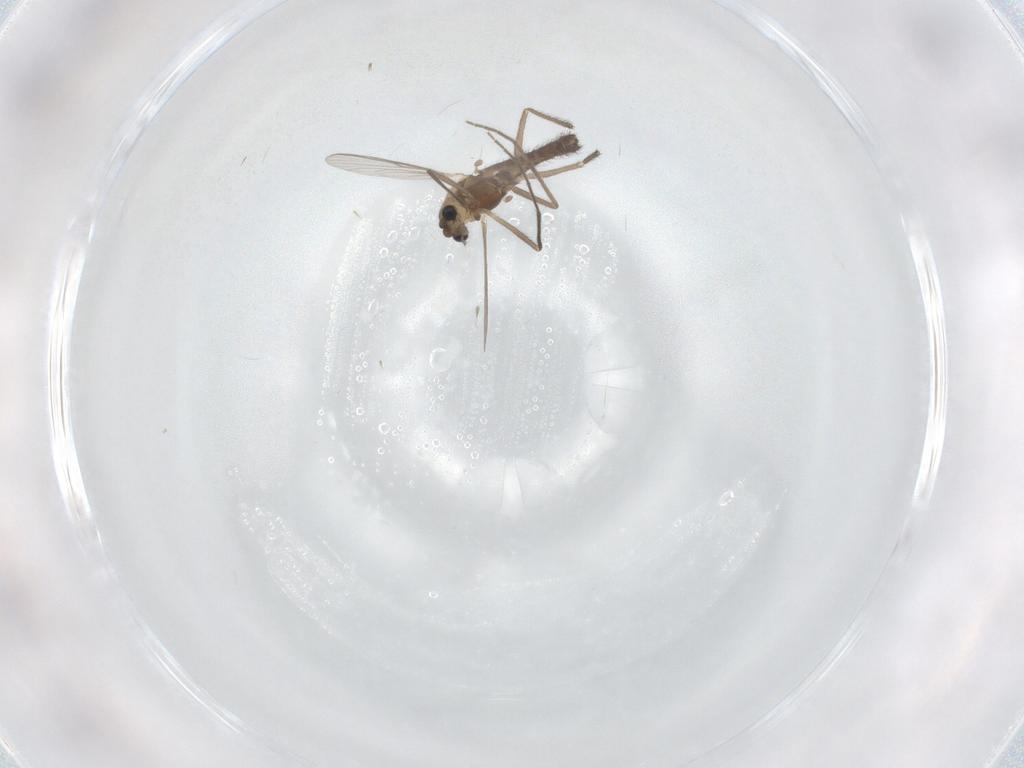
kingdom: Animalia
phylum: Arthropoda
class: Insecta
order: Diptera
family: Chironomidae
